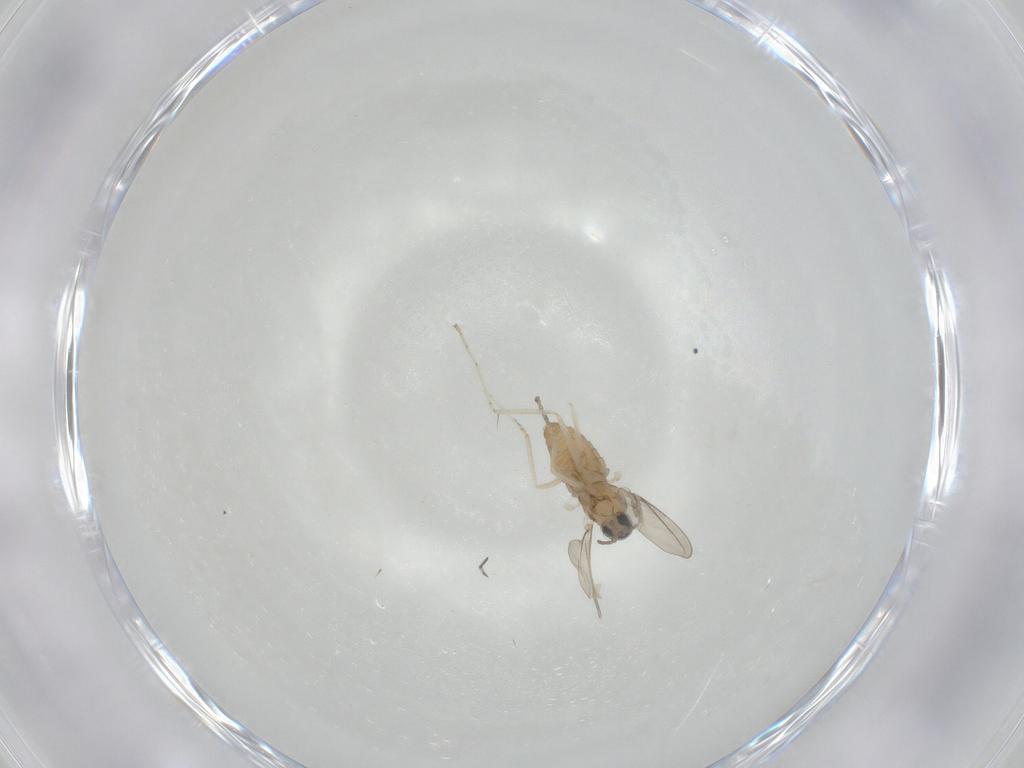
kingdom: Animalia
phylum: Arthropoda
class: Insecta
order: Diptera
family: Cecidomyiidae
